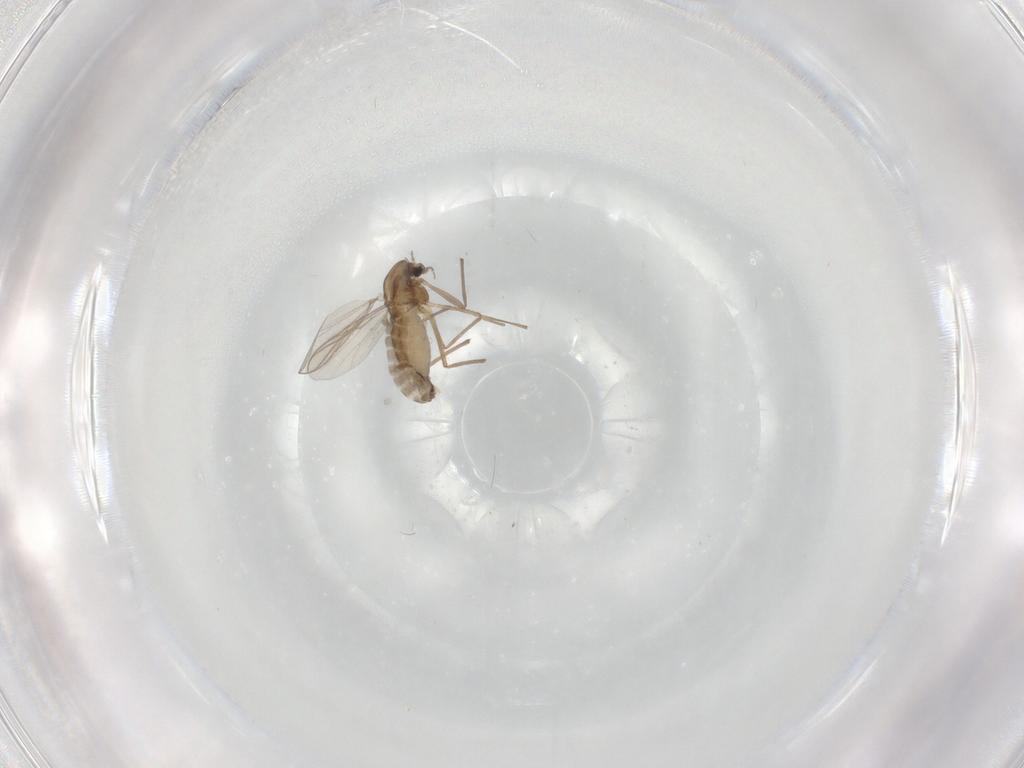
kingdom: Animalia
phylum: Arthropoda
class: Insecta
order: Diptera
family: Chironomidae
